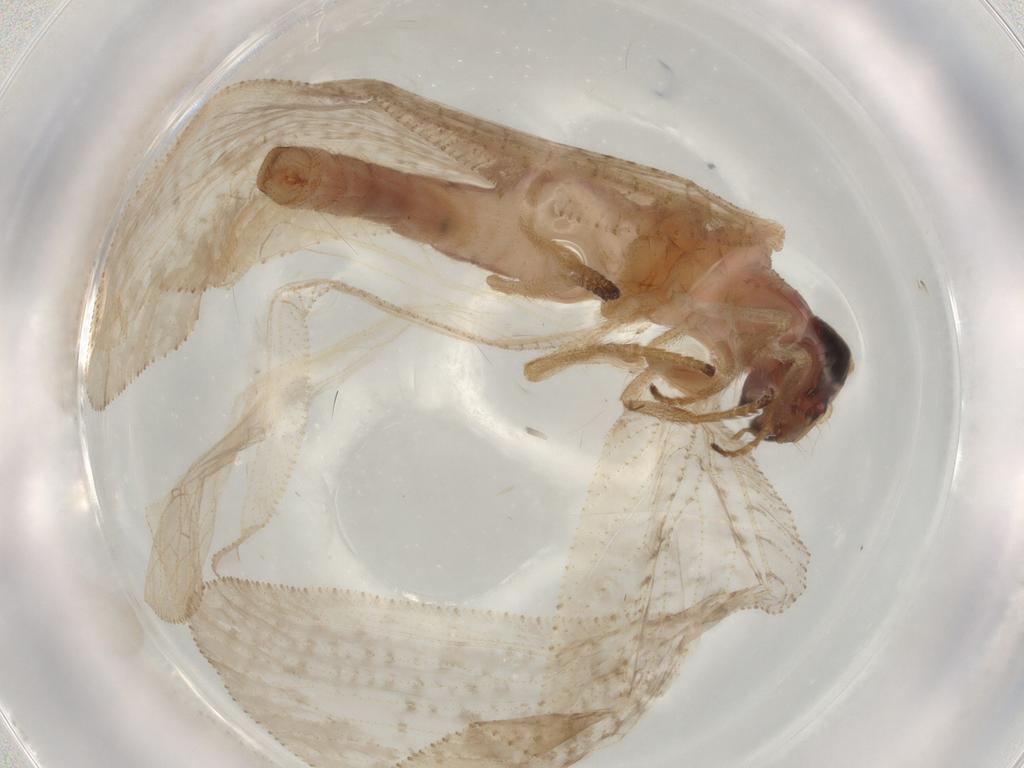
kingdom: Animalia
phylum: Arthropoda
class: Insecta
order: Neuroptera
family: Hemerobiidae
